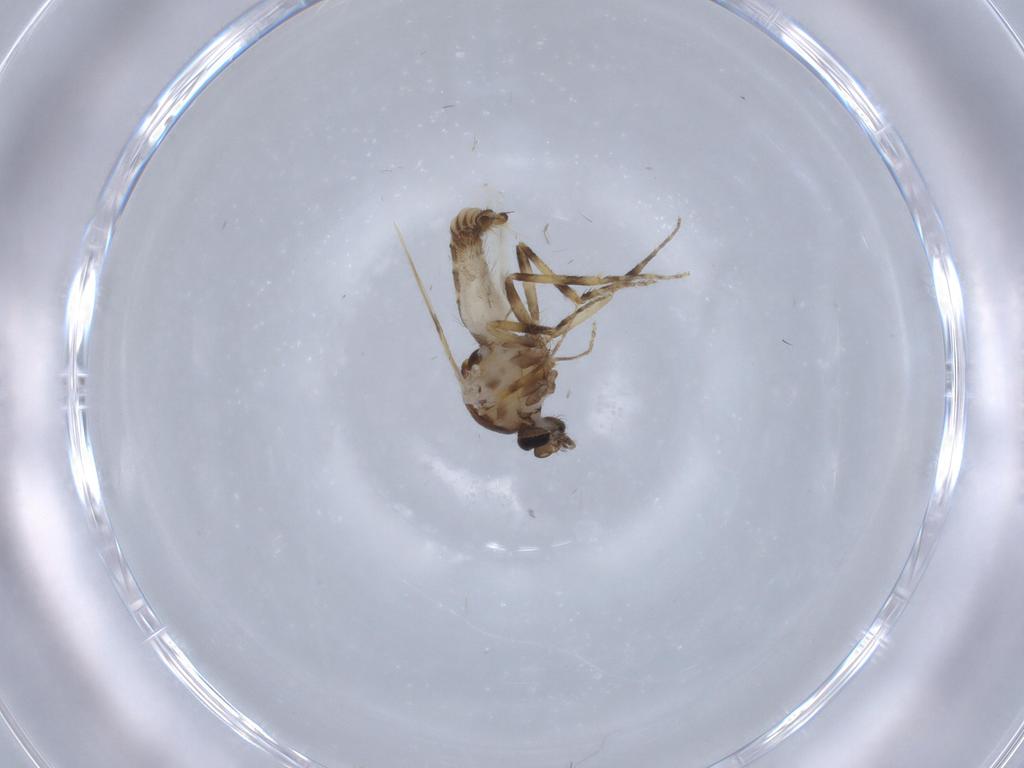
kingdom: Animalia
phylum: Arthropoda
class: Insecta
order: Diptera
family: Ceratopogonidae
